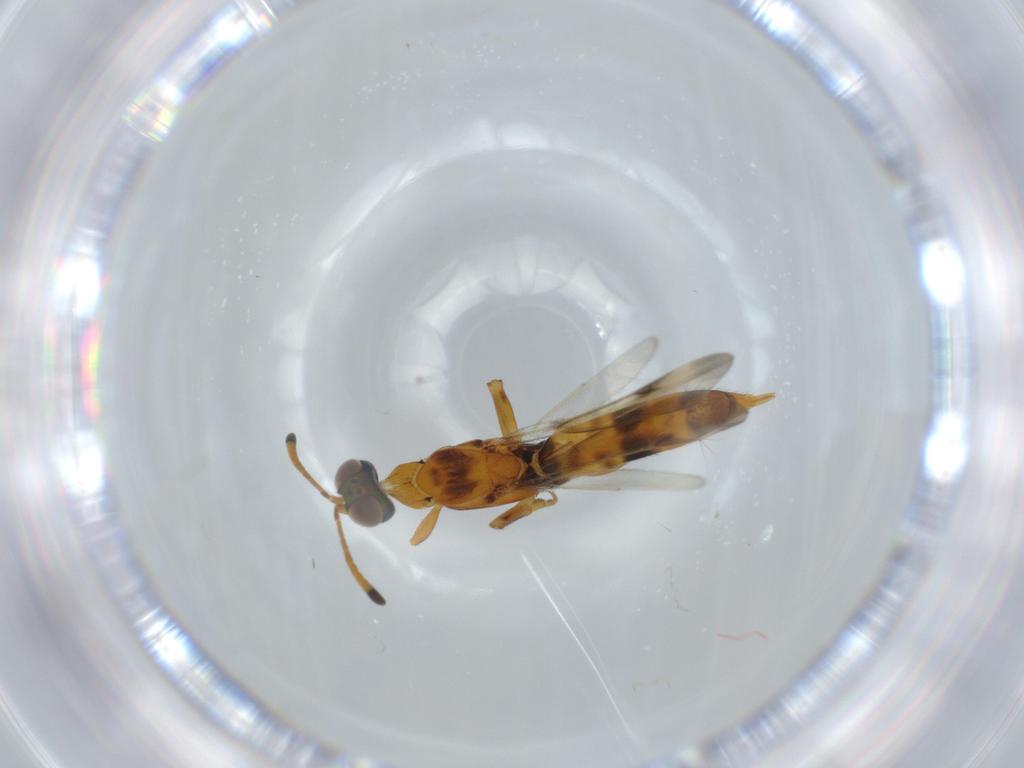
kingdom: Animalia
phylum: Arthropoda
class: Insecta
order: Hymenoptera
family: Eupelmidae
